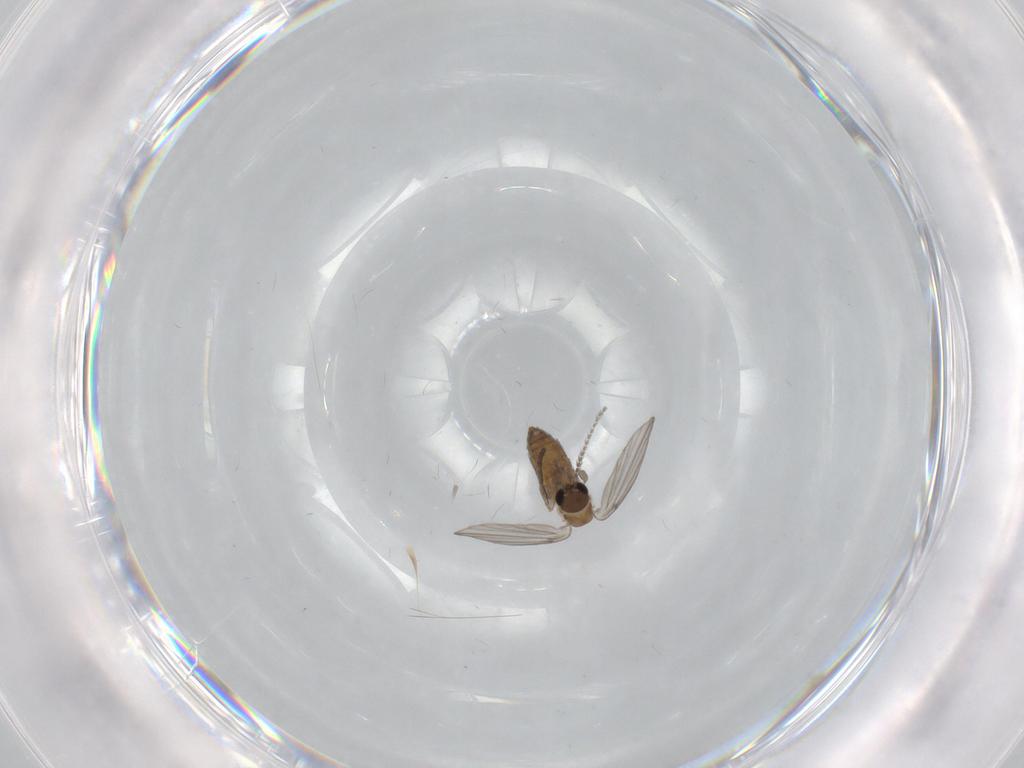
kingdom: Animalia
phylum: Arthropoda
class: Insecta
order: Diptera
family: Psychodidae
